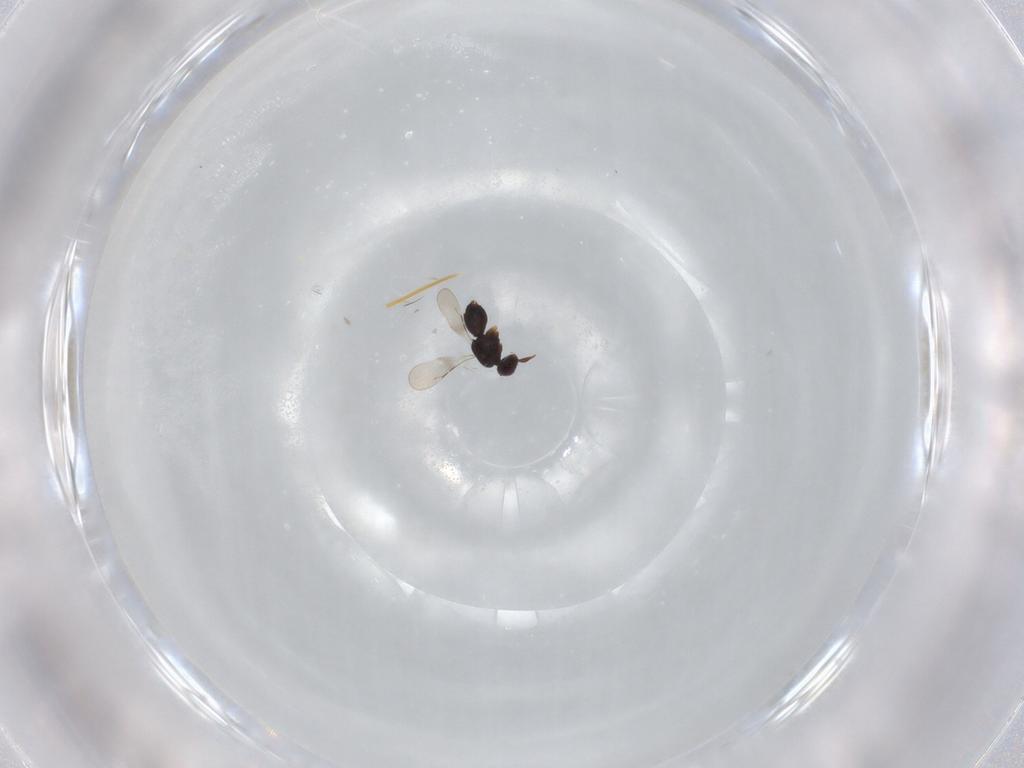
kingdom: Animalia
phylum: Arthropoda
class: Insecta
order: Hymenoptera
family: Ceraphronidae
